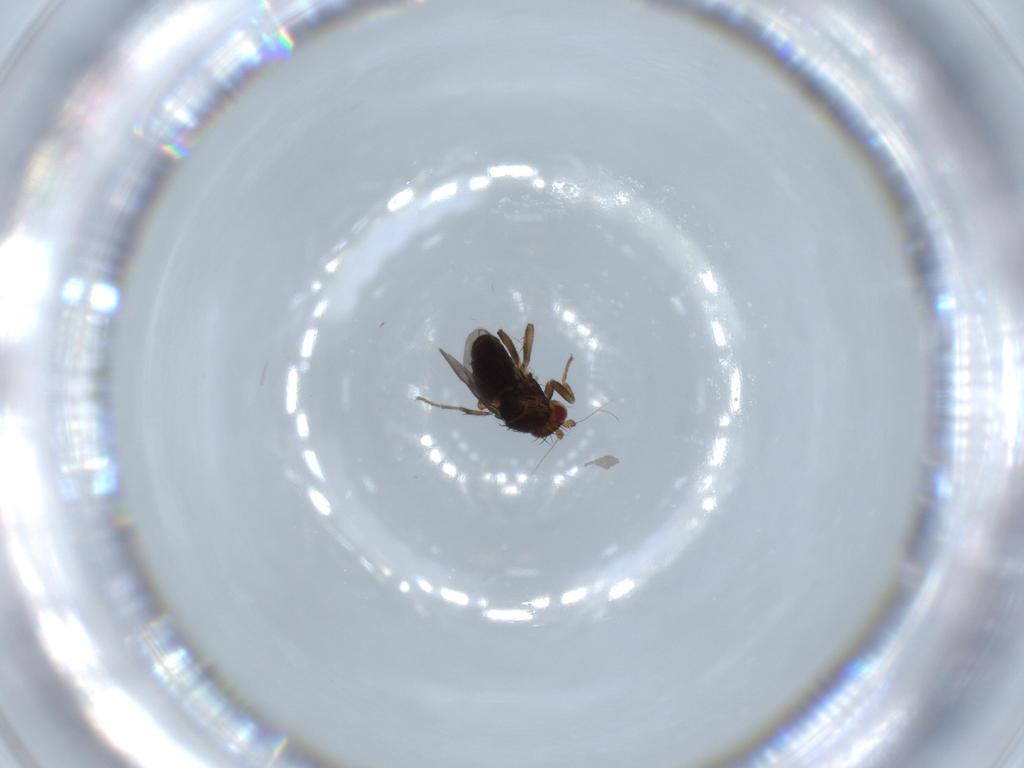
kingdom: Animalia
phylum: Arthropoda
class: Insecta
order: Diptera
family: Sphaeroceridae
